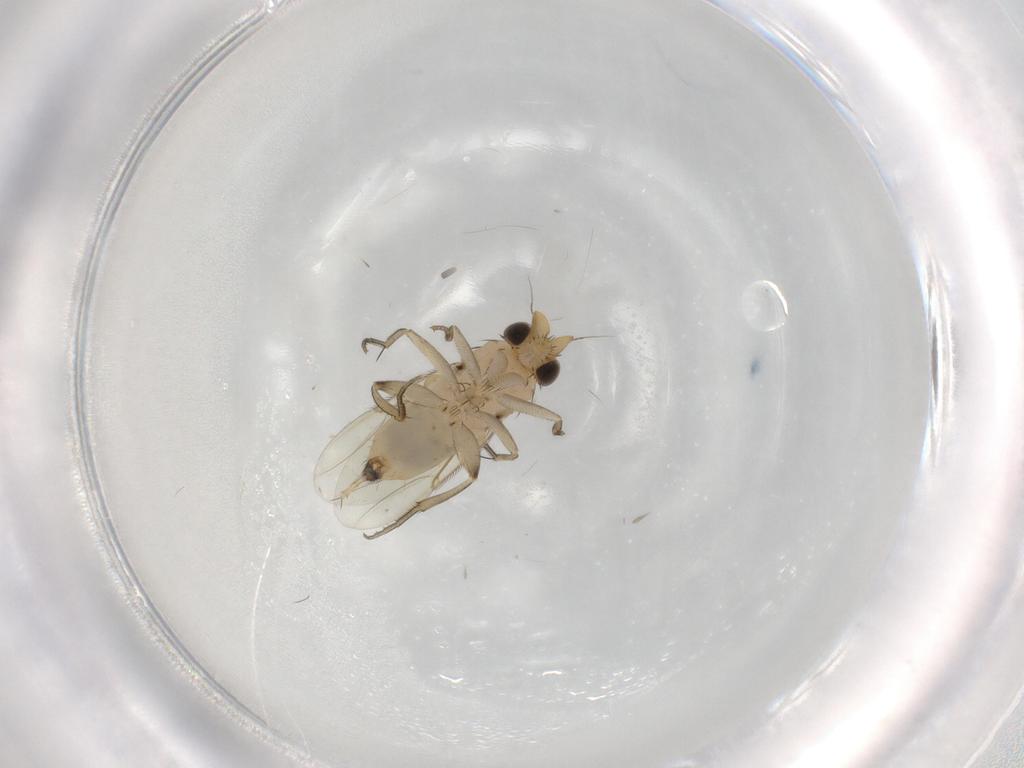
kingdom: Animalia
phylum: Arthropoda
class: Insecta
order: Diptera
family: Phoridae
